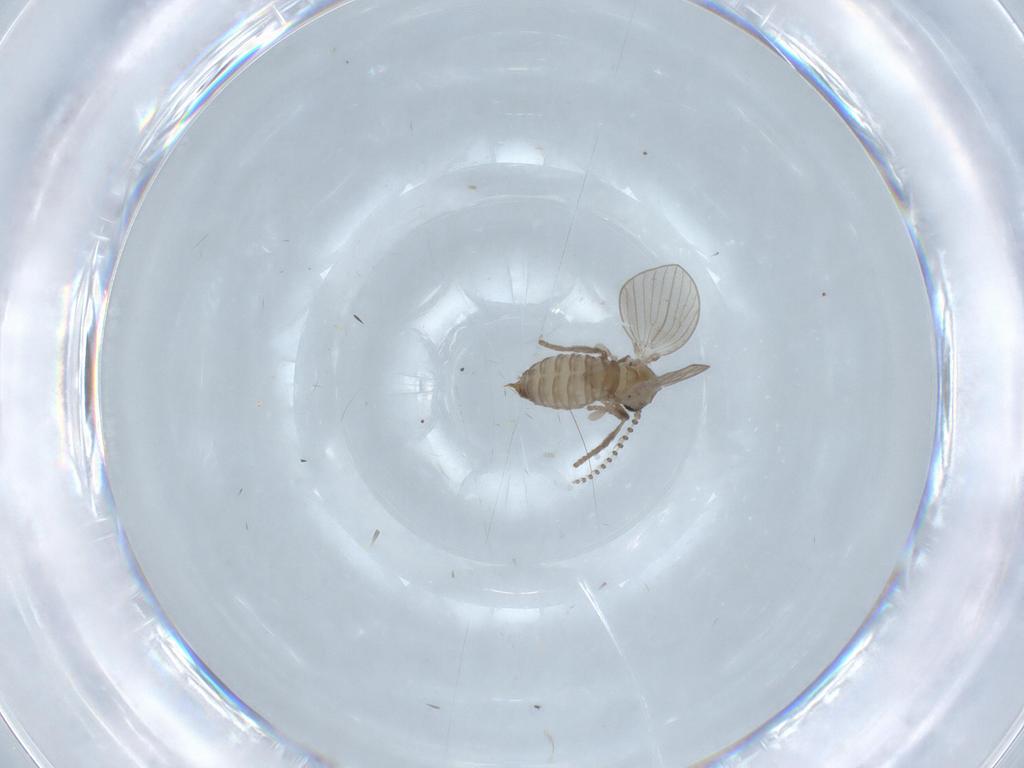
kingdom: Animalia
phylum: Arthropoda
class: Insecta
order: Diptera
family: Psychodidae
